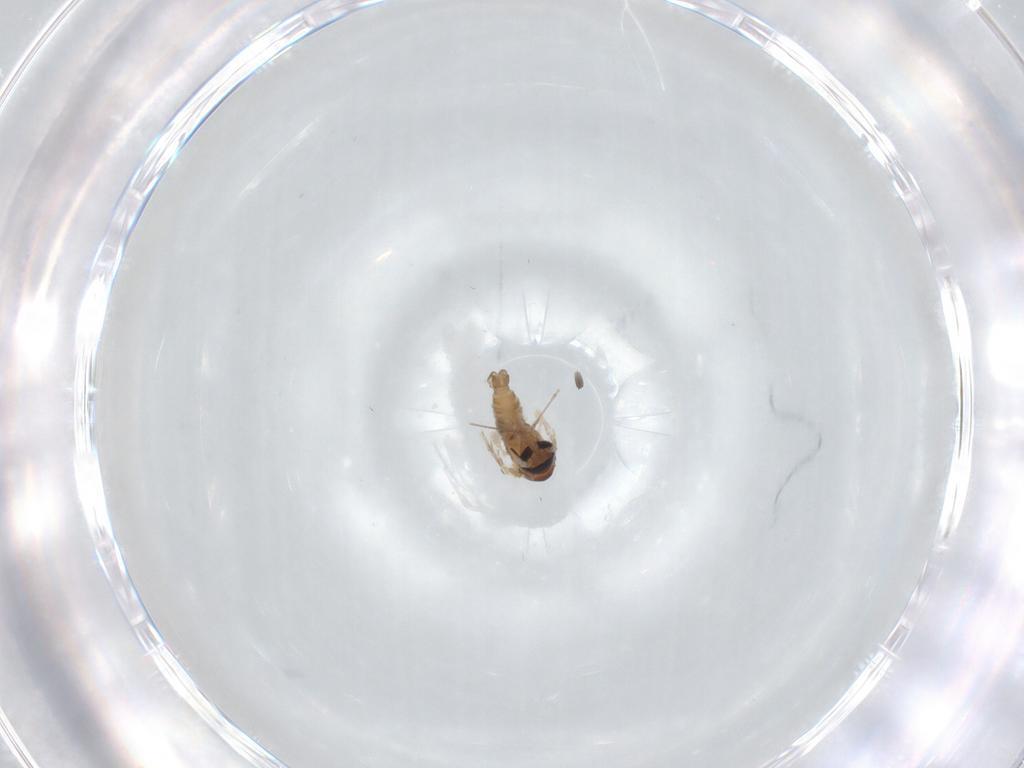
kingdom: Animalia
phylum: Arthropoda
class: Insecta
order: Diptera
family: Psychodidae
